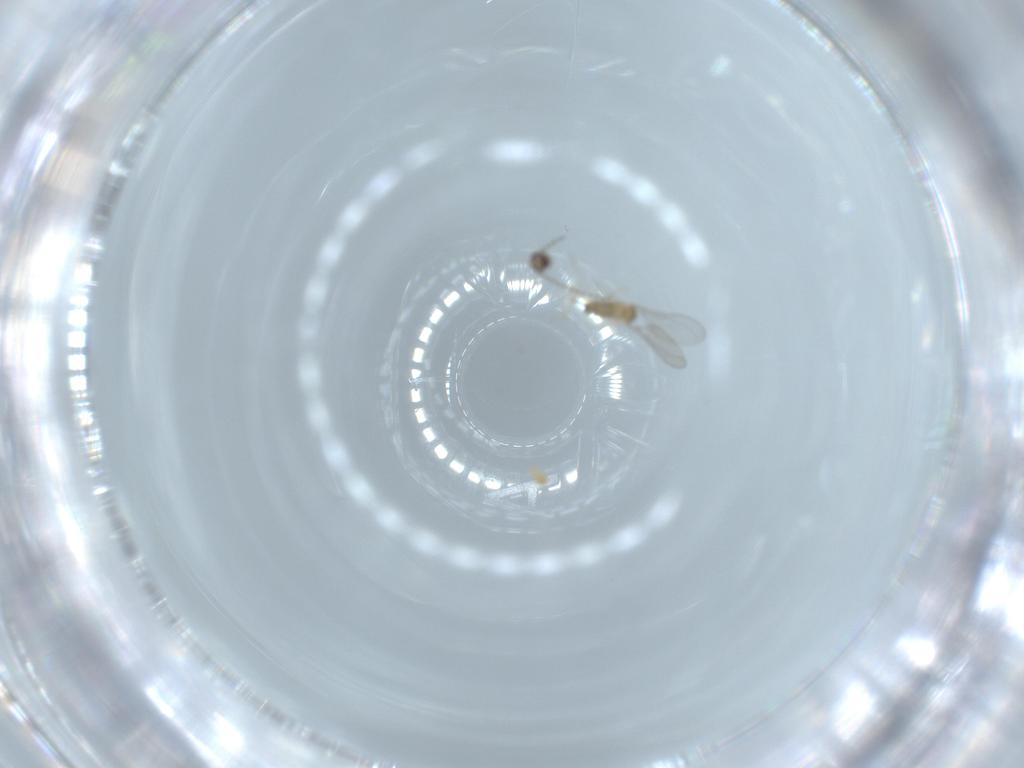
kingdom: Animalia
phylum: Arthropoda
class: Insecta
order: Diptera
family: Cecidomyiidae
